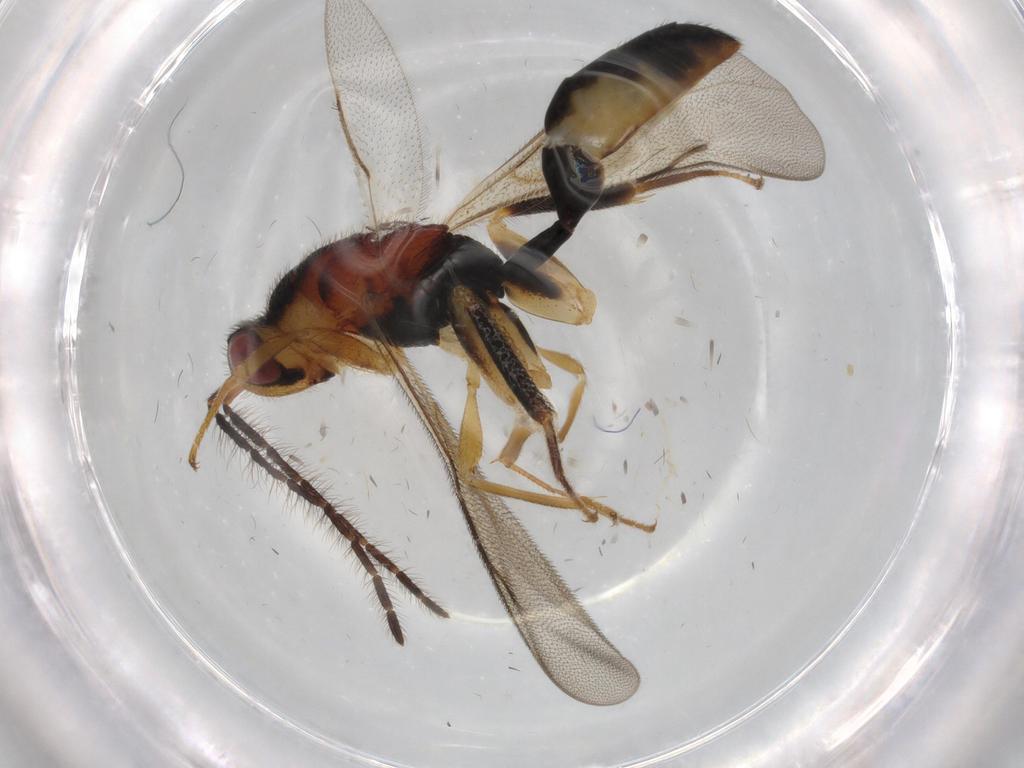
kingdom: Animalia
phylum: Arthropoda
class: Insecta
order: Hymenoptera
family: Eurytomidae
